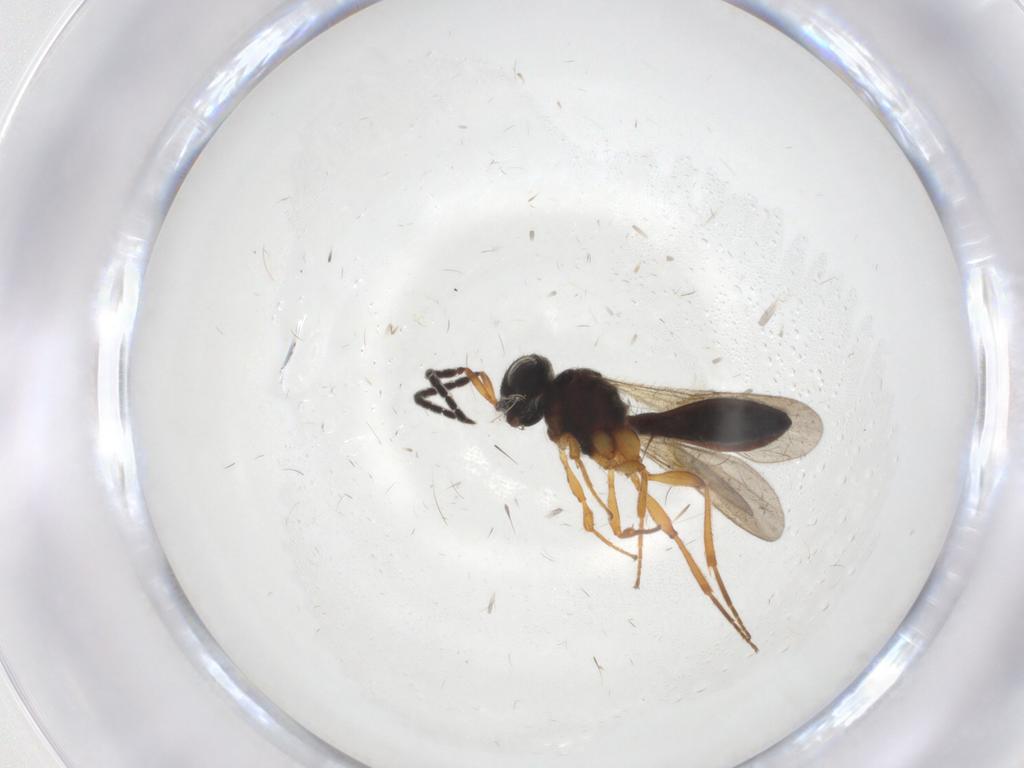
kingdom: Animalia
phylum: Arthropoda
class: Insecta
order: Hymenoptera
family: Scelionidae
